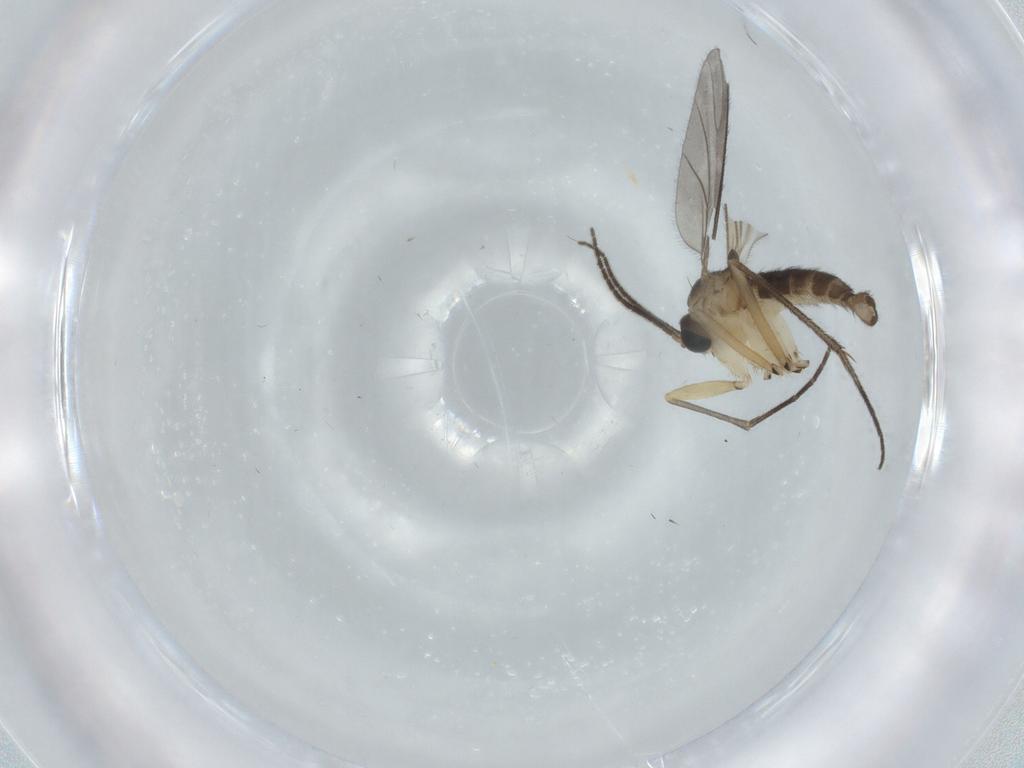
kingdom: Animalia
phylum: Arthropoda
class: Insecta
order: Diptera
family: Sciaridae
